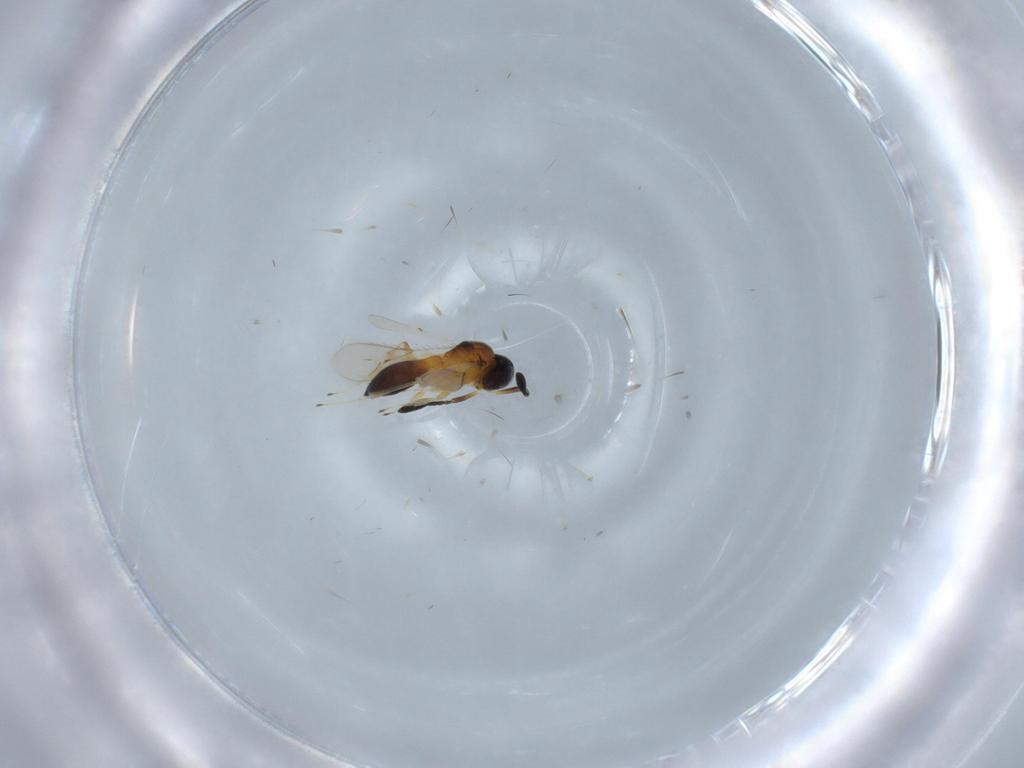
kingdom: Animalia
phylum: Arthropoda
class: Insecta
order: Hymenoptera
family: Scelionidae
